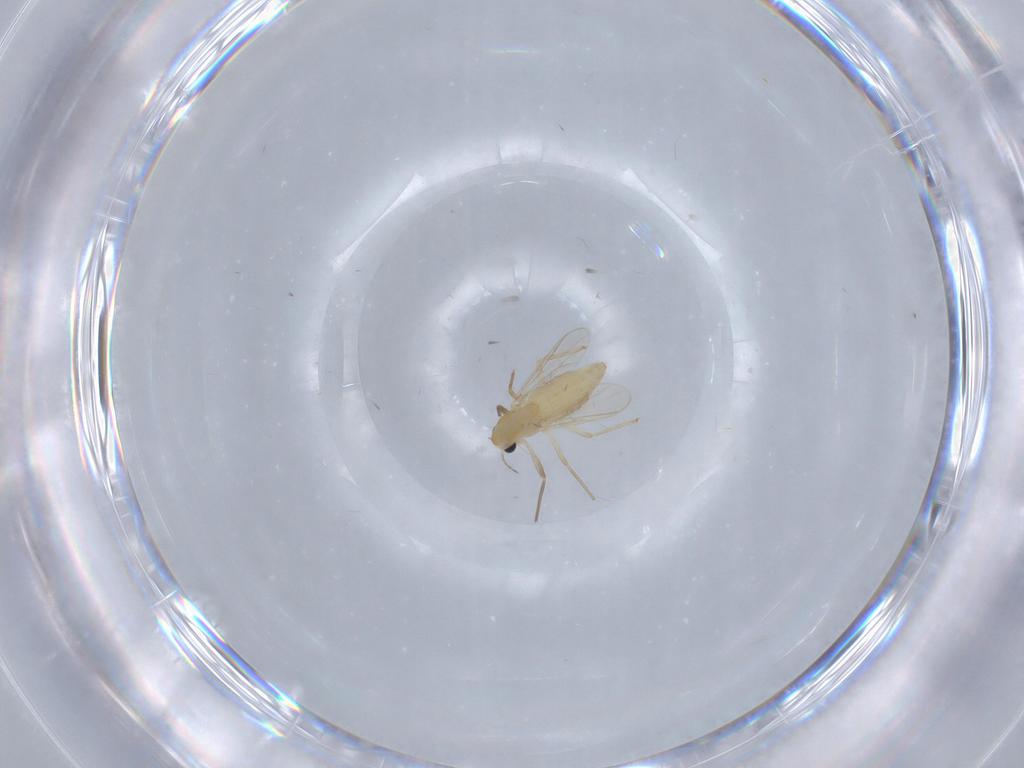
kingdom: Animalia
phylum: Arthropoda
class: Insecta
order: Diptera
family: Chironomidae
